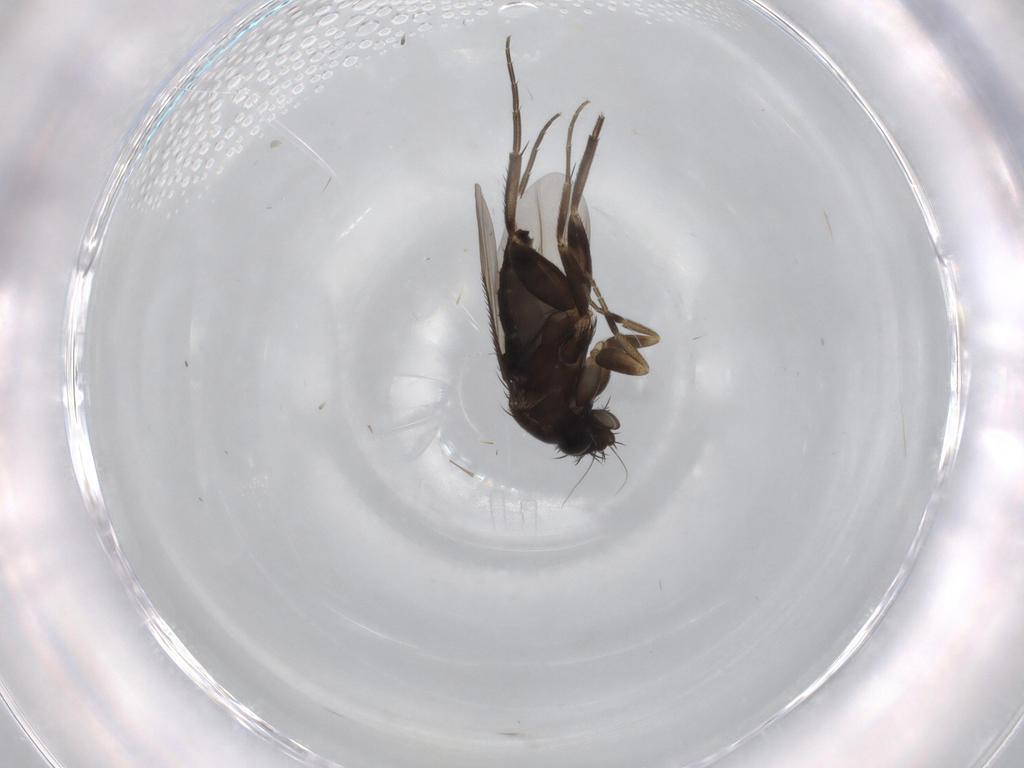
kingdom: Animalia
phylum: Arthropoda
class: Insecta
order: Diptera
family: Phoridae
